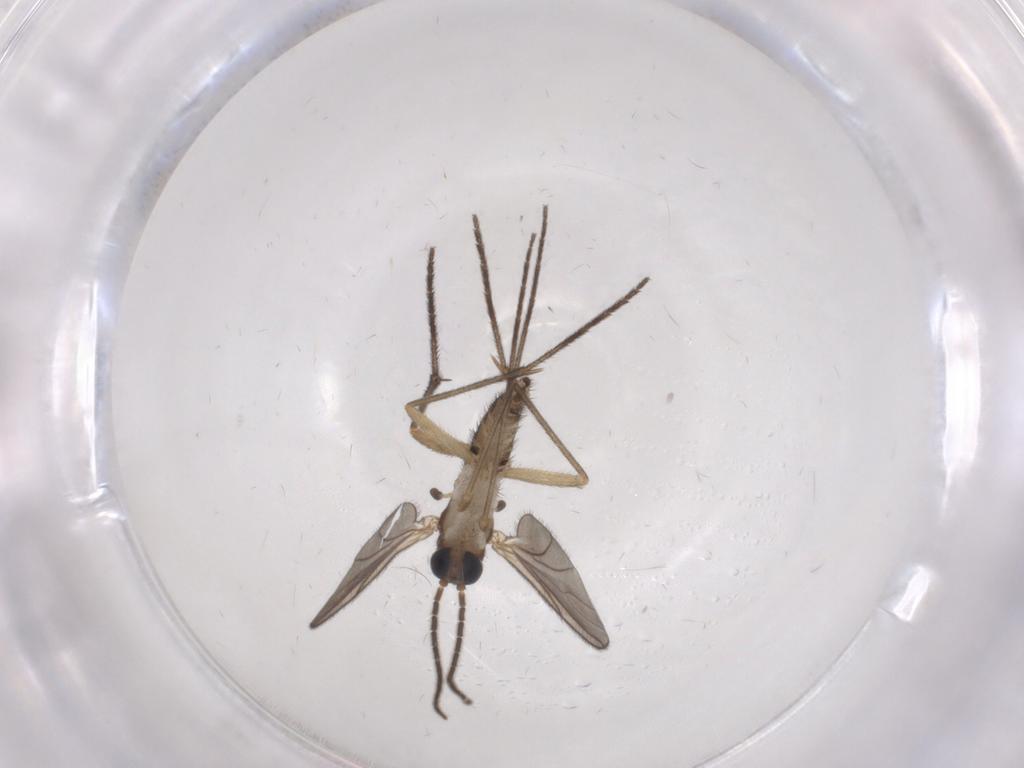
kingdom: Animalia
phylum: Arthropoda
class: Insecta
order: Diptera
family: Sciaridae
